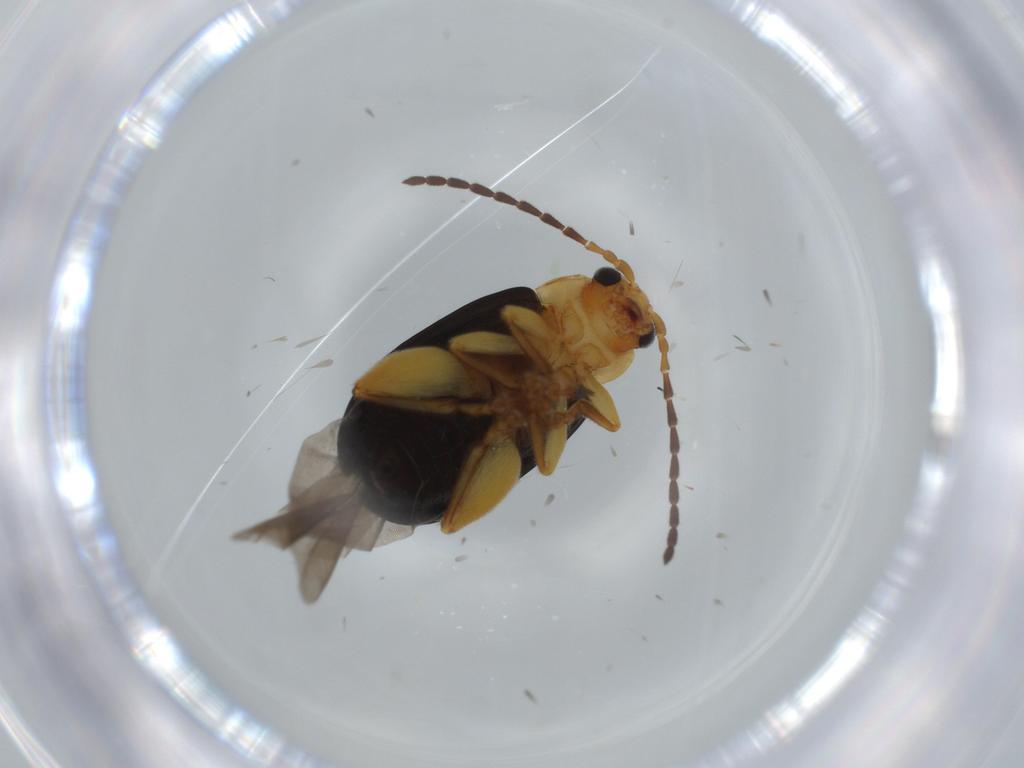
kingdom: Animalia
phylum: Arthropoda
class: Insecta
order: Coleoptera
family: Chrysomelidae
